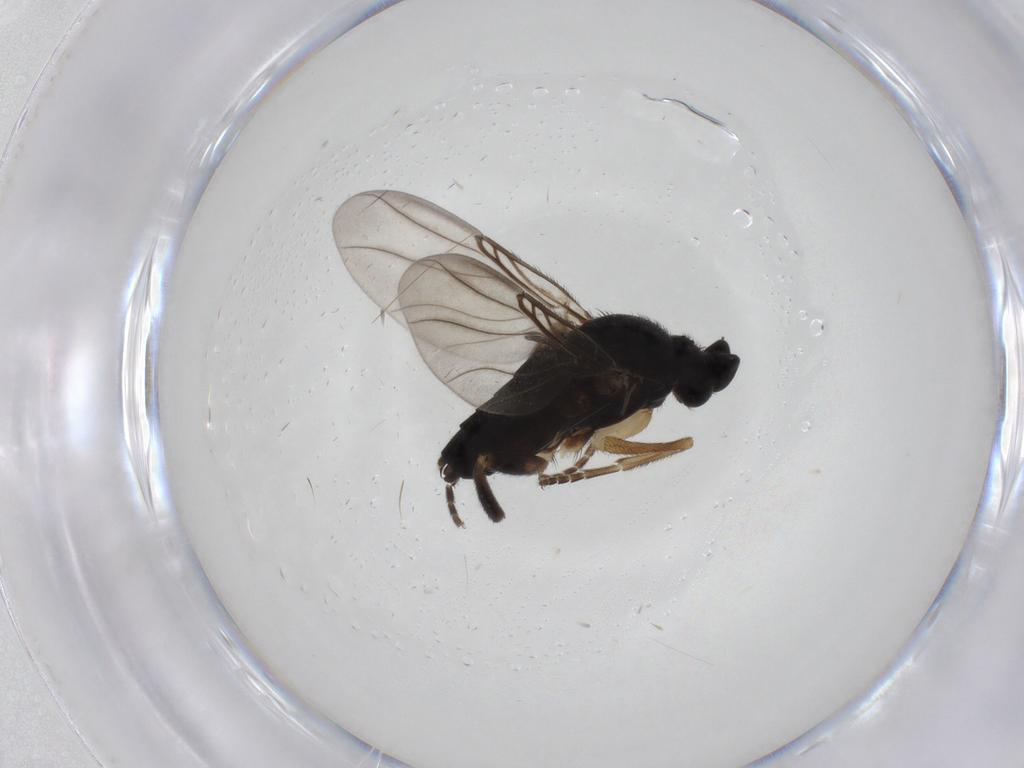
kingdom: Animalia
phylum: Arthropoda
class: Insecta
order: Diptera
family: Phoridae
